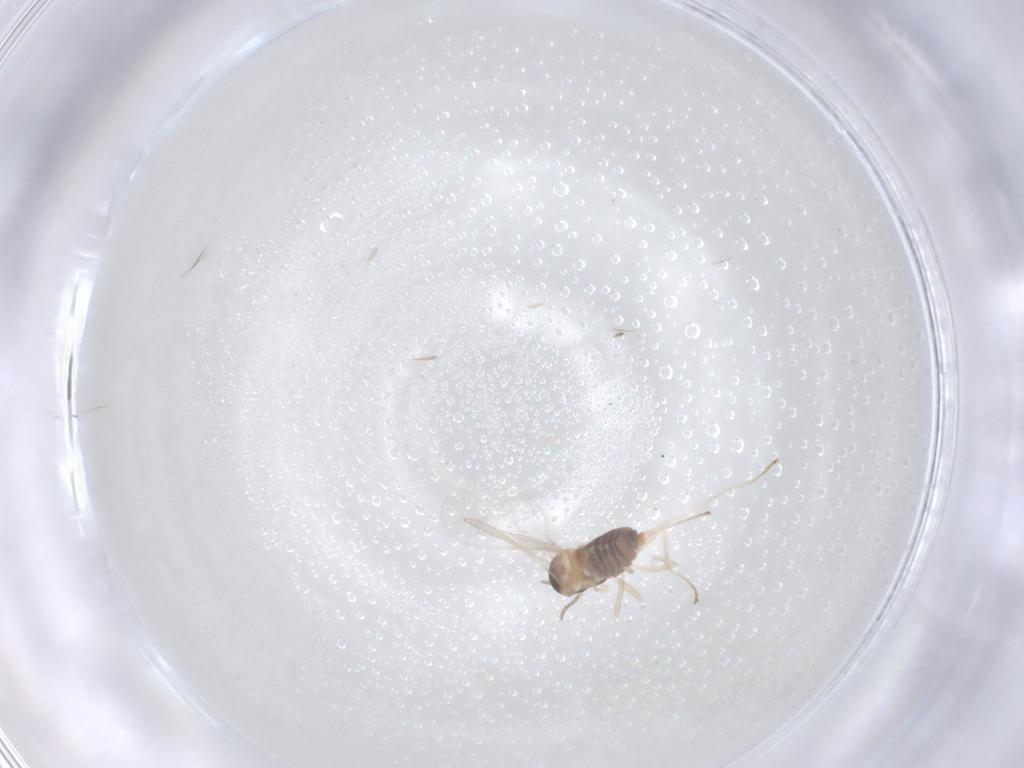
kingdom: Animalia
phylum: Arthropoda
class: Insecta
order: Diptera
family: Cecidomyiidae
